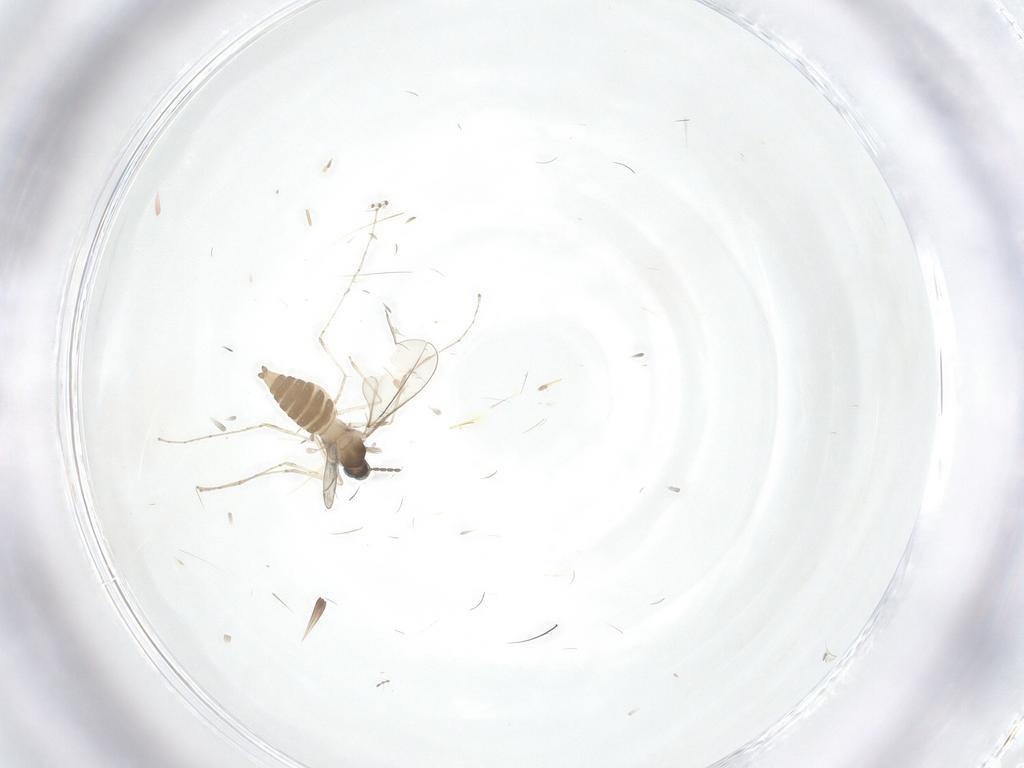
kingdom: Animalia
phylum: Arthropoda
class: Insecta
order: Diptera
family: Cecidomyiidae
